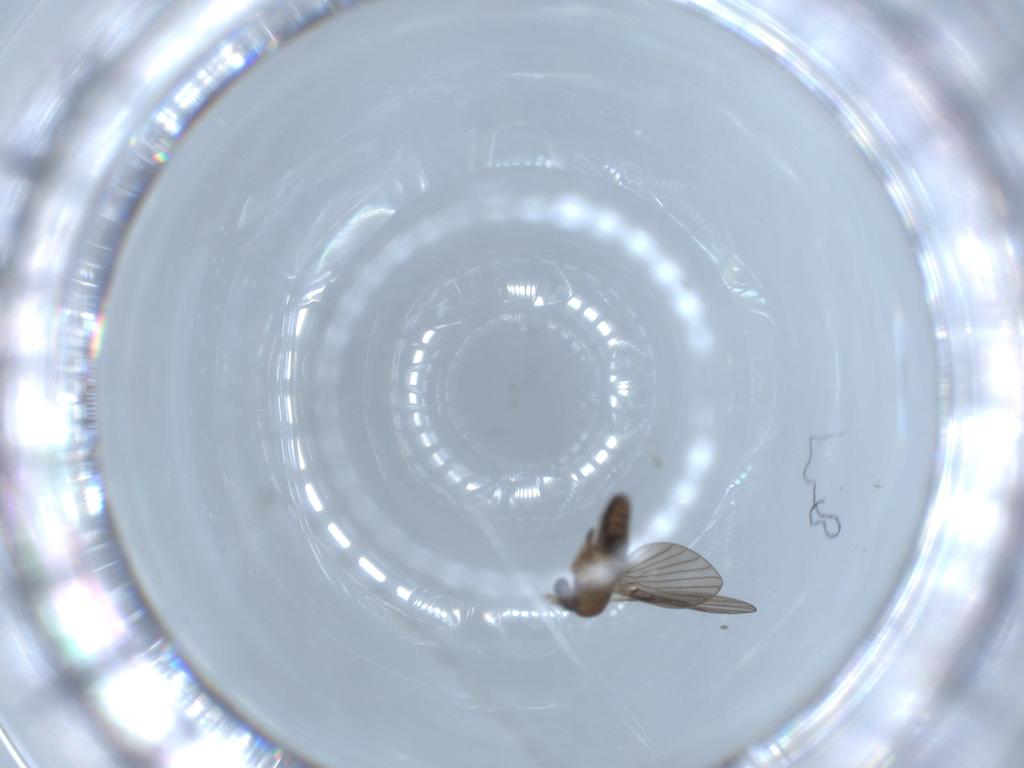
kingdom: Animalia
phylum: Arthropoda
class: Insecta
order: Diptera
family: Psychodidae
